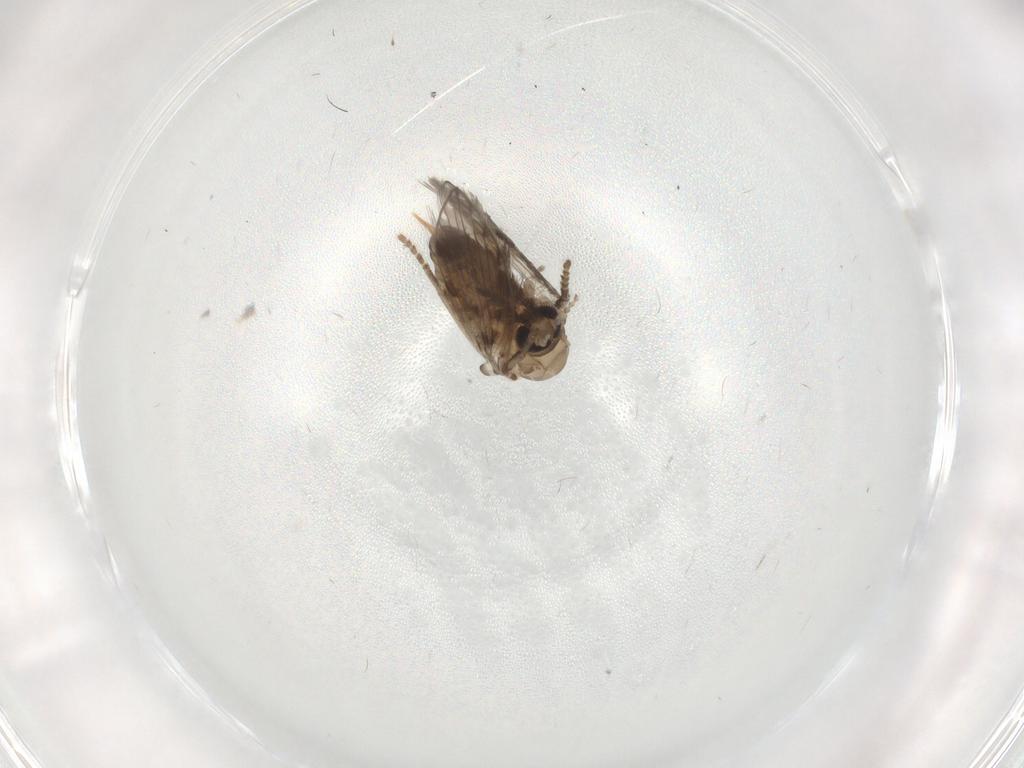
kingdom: Animalia
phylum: Arthropoda
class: Insecta
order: Diptera
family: Psychodidae
